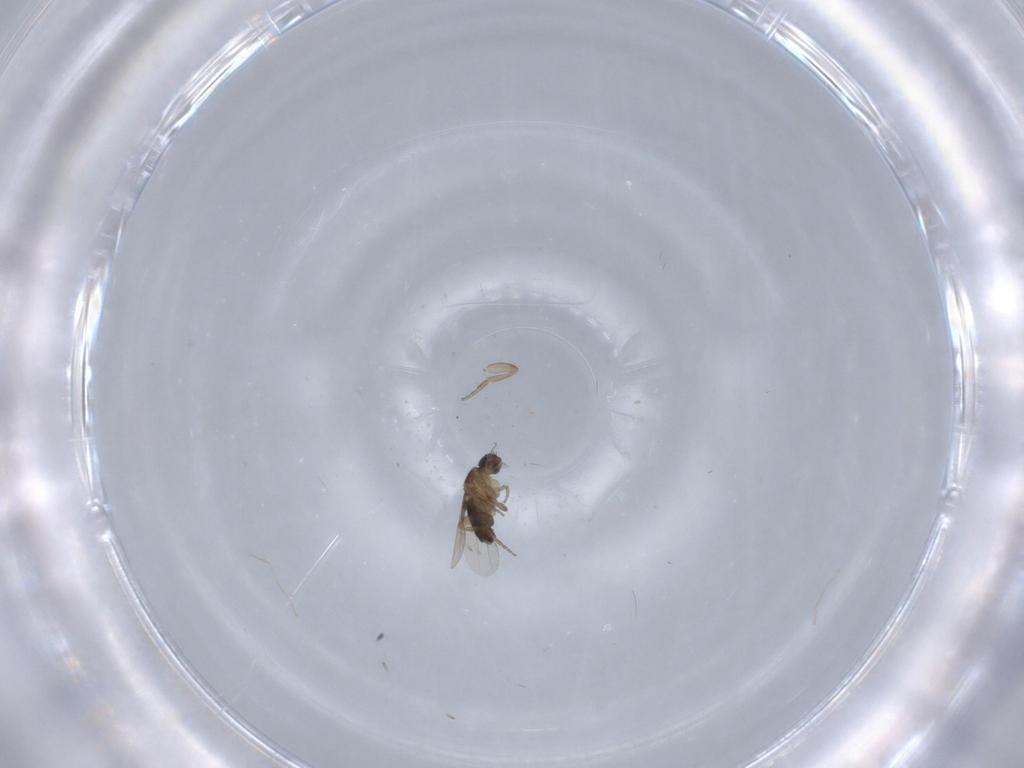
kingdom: Animalia
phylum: Arthropoda
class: Insecta
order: Diptera
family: Phoridae
